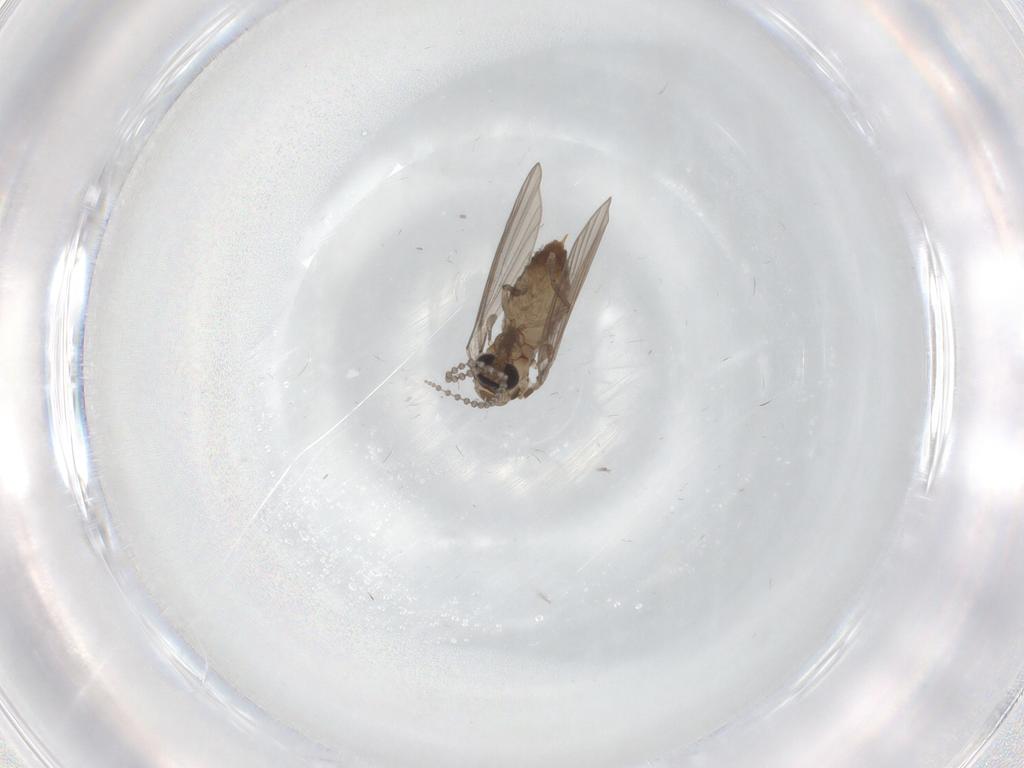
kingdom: Animalia
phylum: Arthropoda
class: Insecta
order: Diptera
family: Psychodidae
